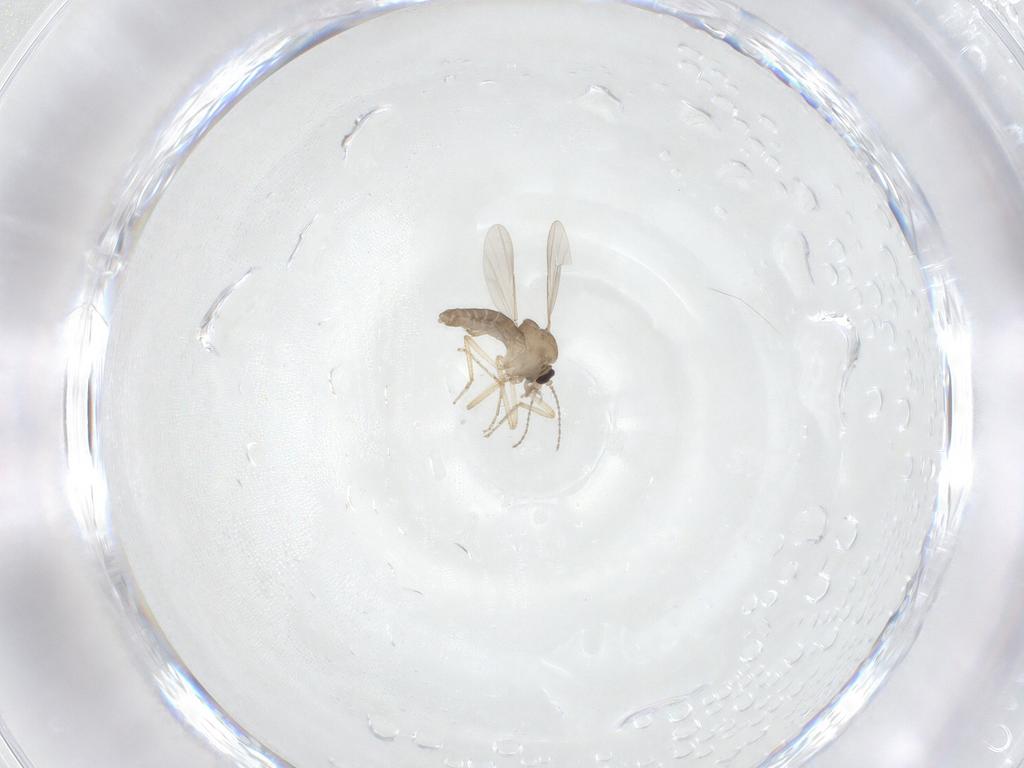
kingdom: Animalia
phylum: Arthropoda
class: Insecta
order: Diptera
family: Ceratopogonidae
